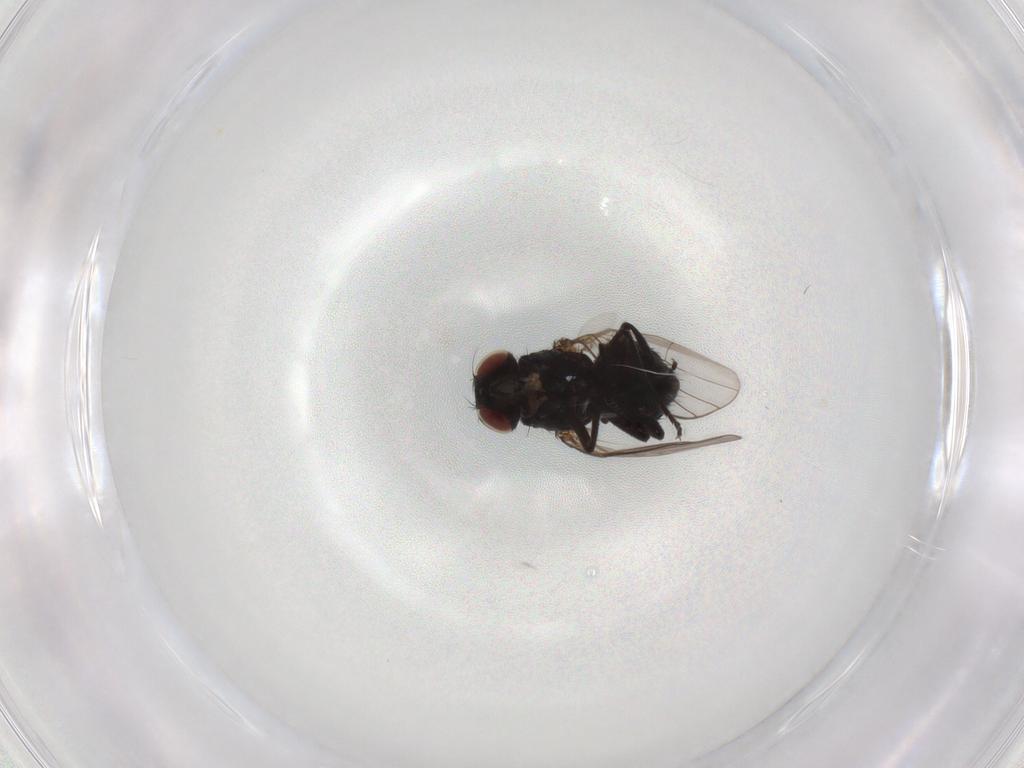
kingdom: Animalia
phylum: Arthropoda
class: Insecta
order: Diptera
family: Agromyzidae
